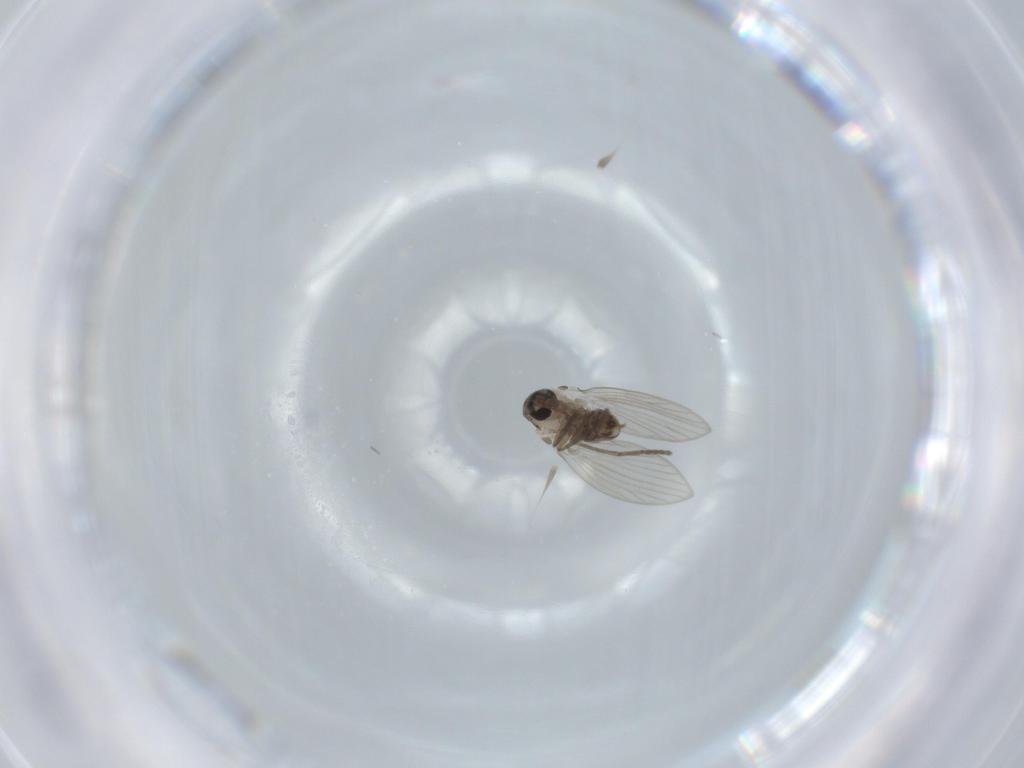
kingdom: Animalia
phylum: Arthropoda
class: Insecta
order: Diptera
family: Psychodidae
